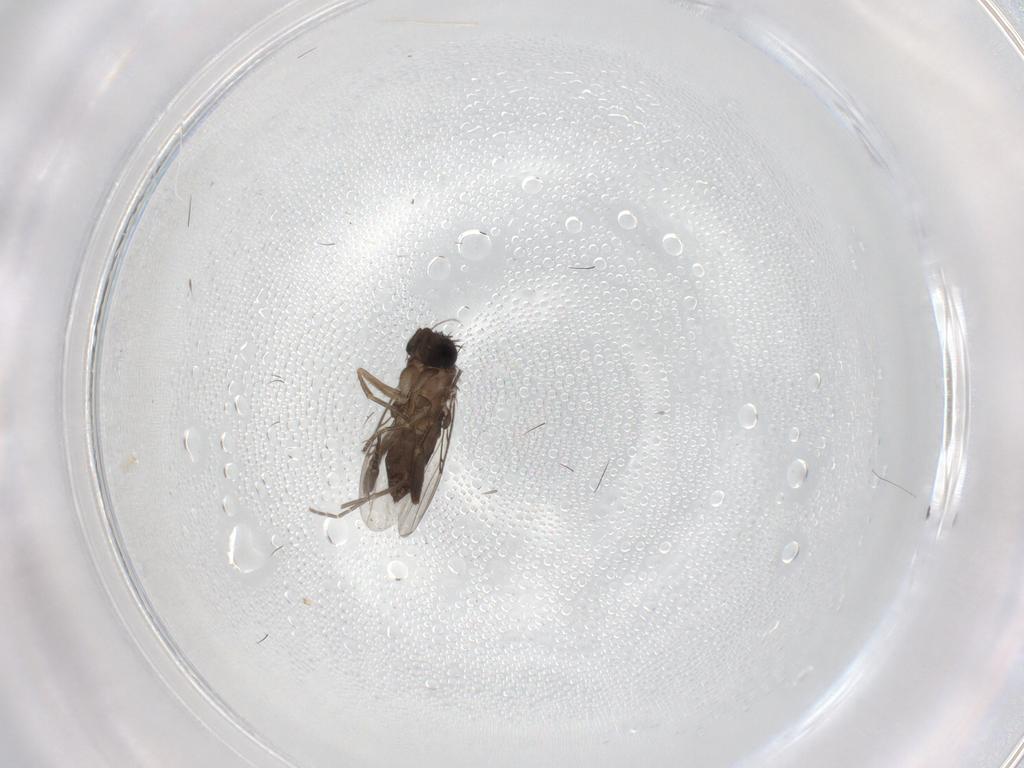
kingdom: Animalia
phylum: Arthropoda
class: Insecta
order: Diptera
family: Phoridae
